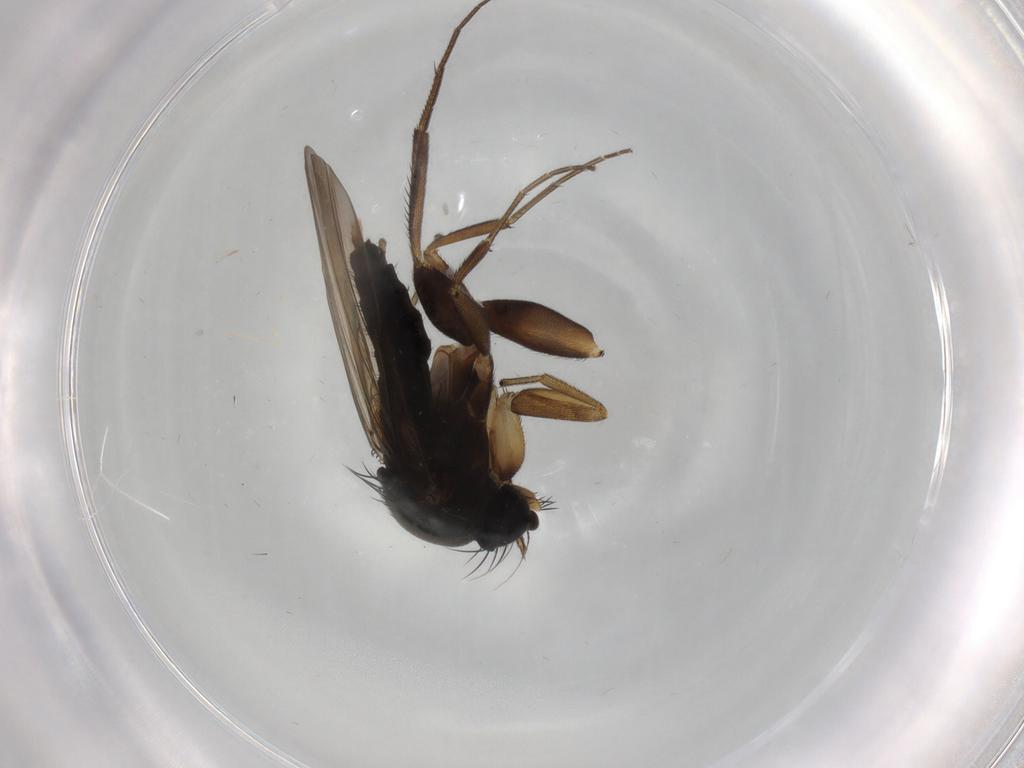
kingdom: Animalia
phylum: Arthropoda
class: Insecta
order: Diptera
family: Phoridae
